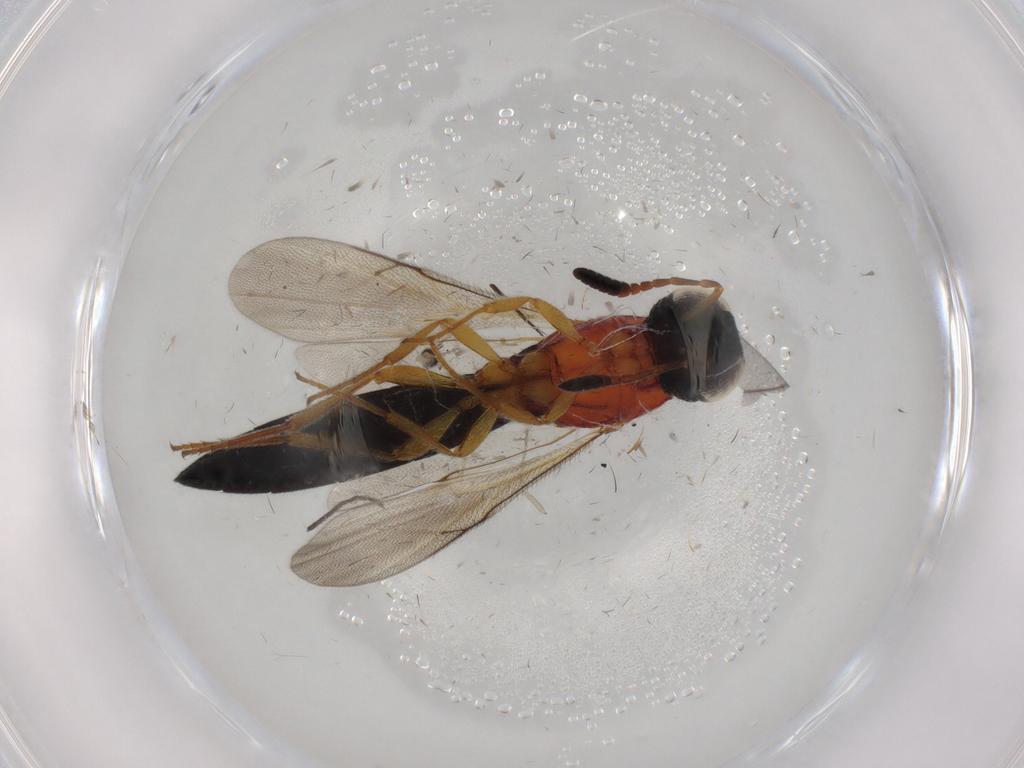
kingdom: Animalia
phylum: Arthropoda
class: Insecta
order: Hymenoptera
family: Scelionidae
